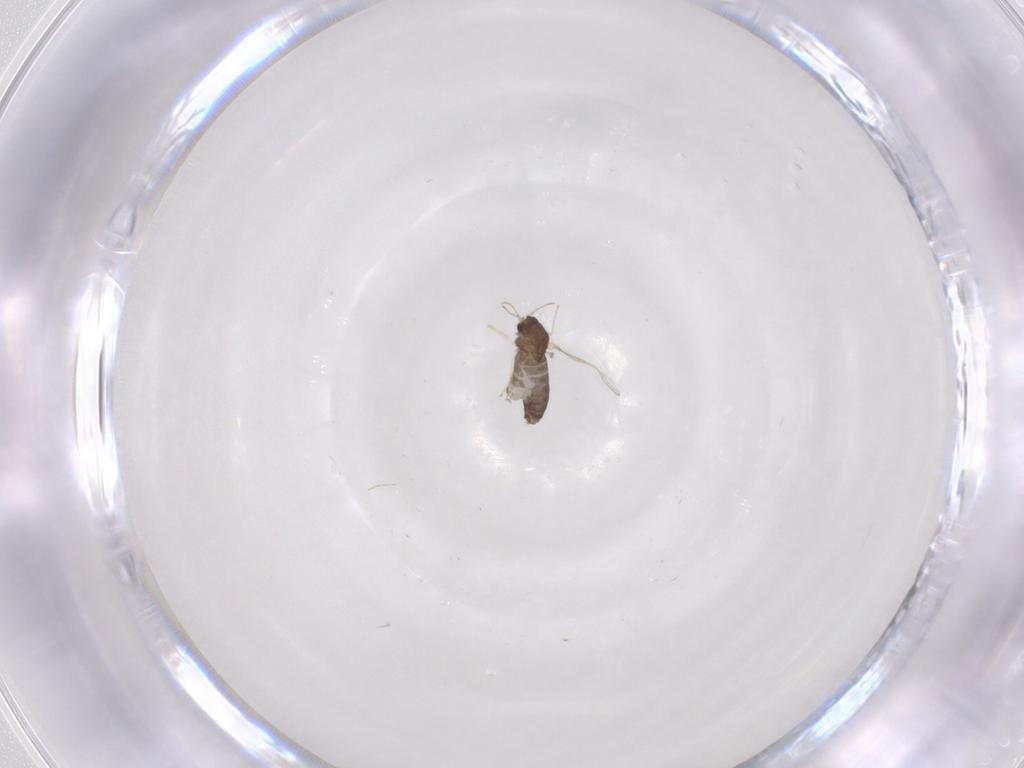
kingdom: Animalia
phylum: Arthropoda
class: Insecta
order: Diptera
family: Chironomidae
